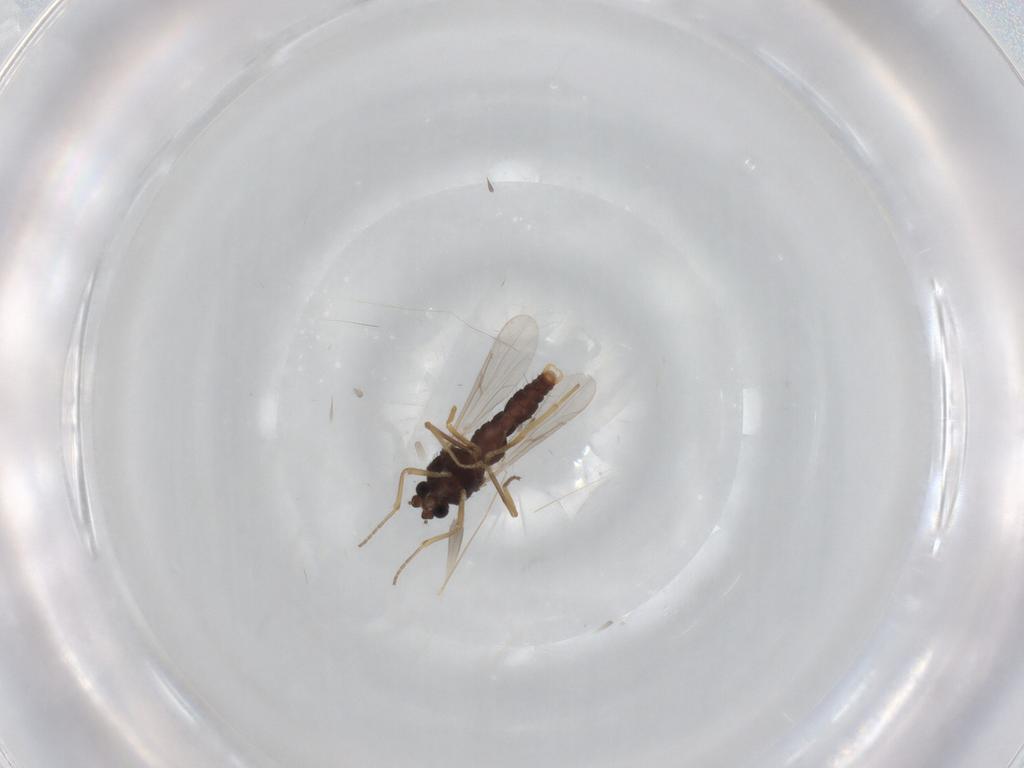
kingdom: Animalia
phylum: Arthropoda
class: Insecta
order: Diptera
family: Ceratopogonidae
